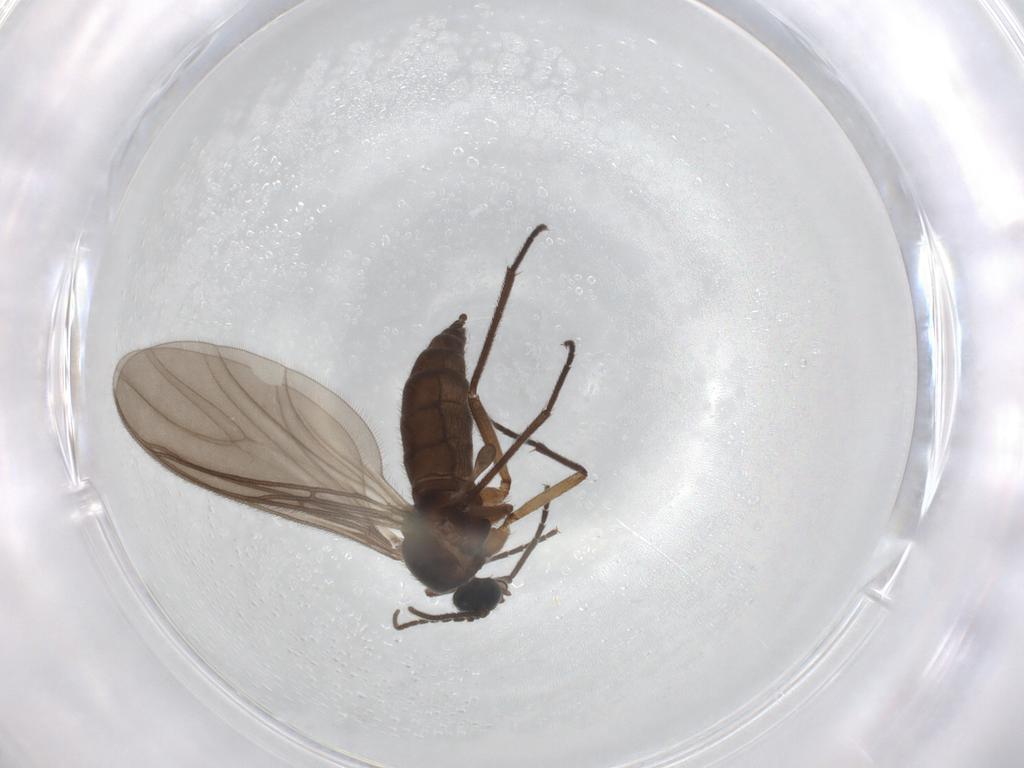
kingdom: Animalia
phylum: Arthropoda
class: Insecta
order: Diptera
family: Sciaridae
